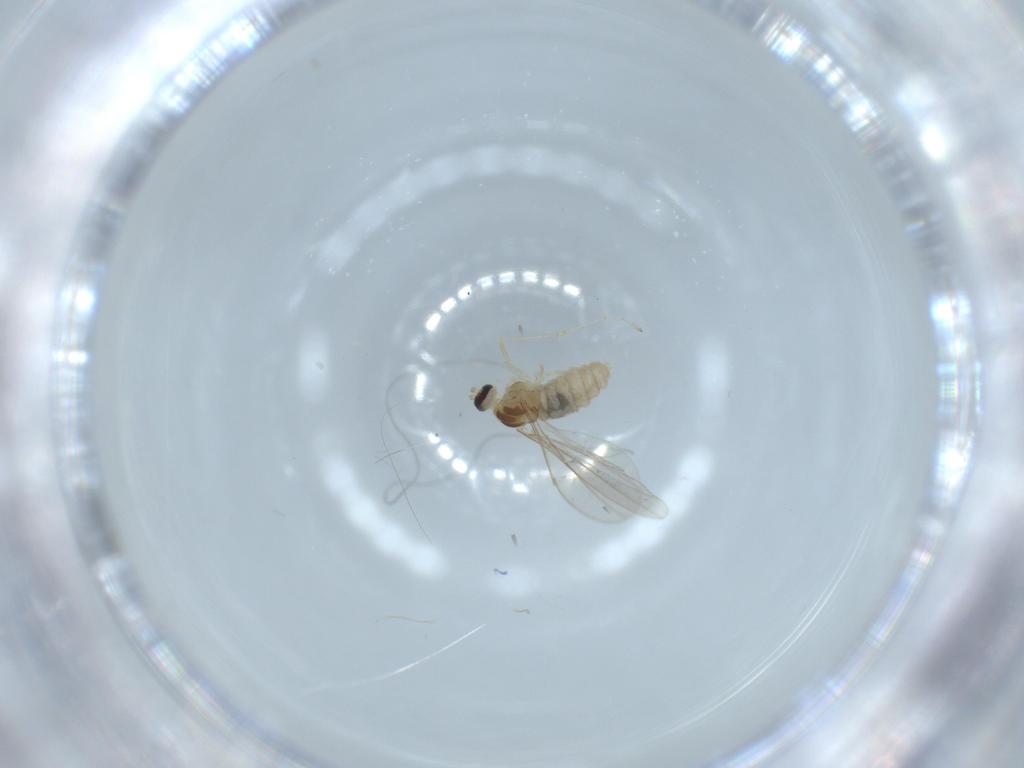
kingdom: Animalia
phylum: Arthropoda
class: Insecta
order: Diptera
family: Cecidomyiidae
